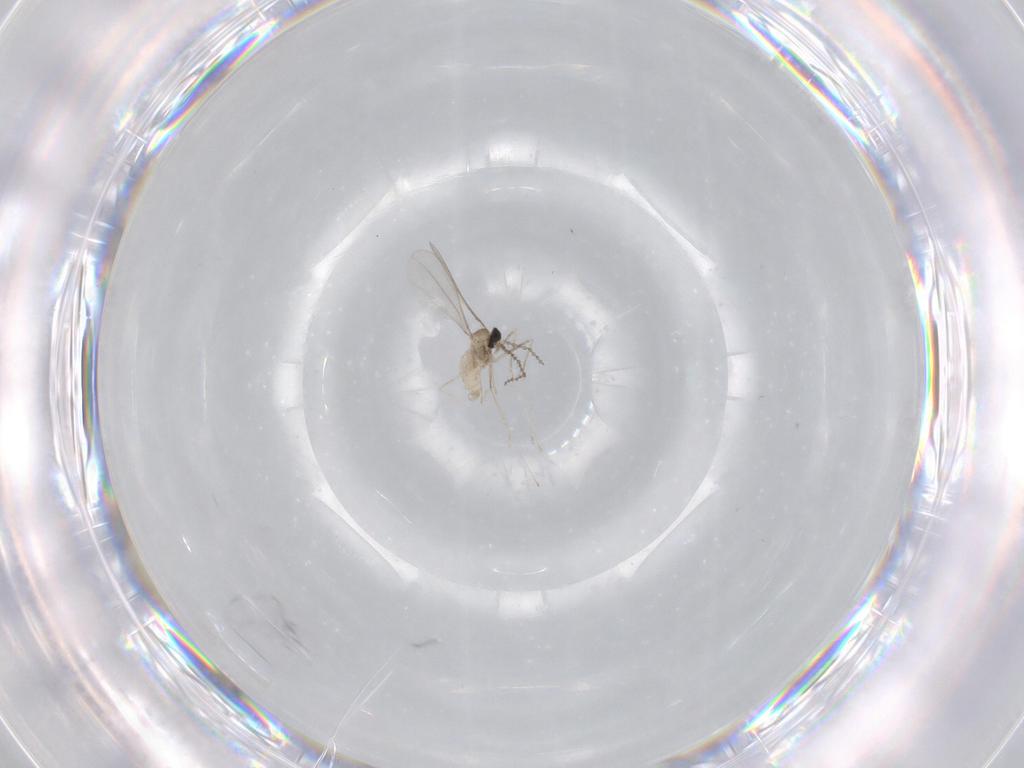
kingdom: Animalia
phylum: Arthropoda
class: Insecta
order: Diptera
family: Cecidomyiidae
